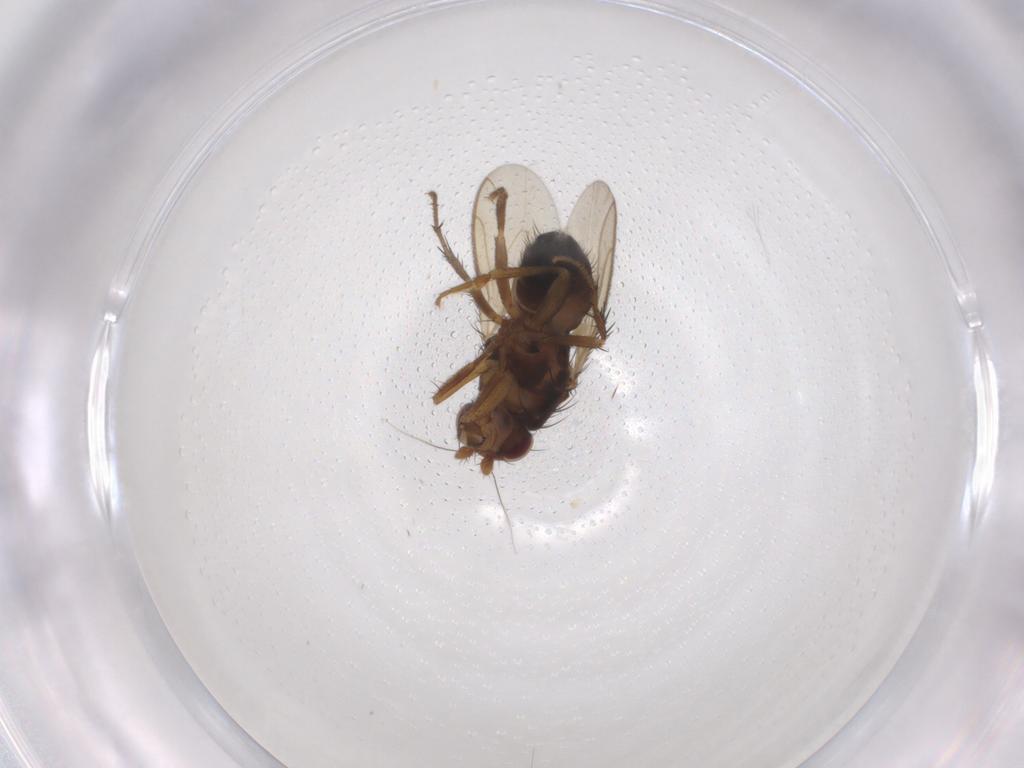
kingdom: Animalia
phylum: Arthropoda
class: Insecta
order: Diptera
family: Sphaeroceridae
